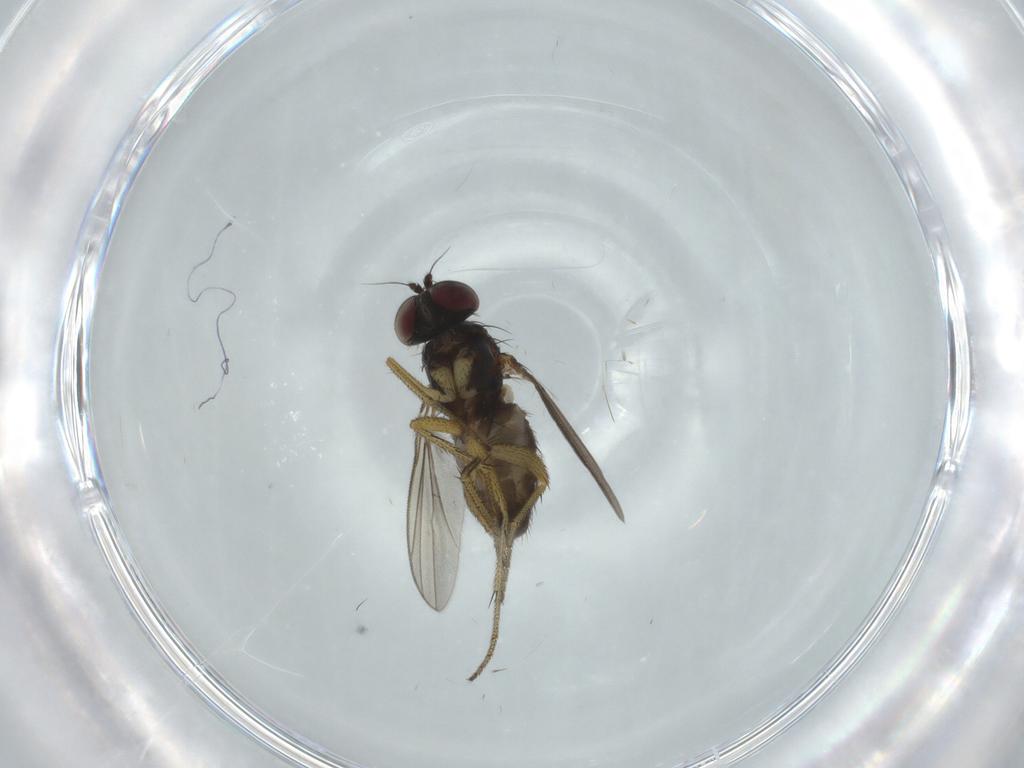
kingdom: Animalia
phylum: Arthropoda
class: Insecta
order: Diptera
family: Dolichopodidae
